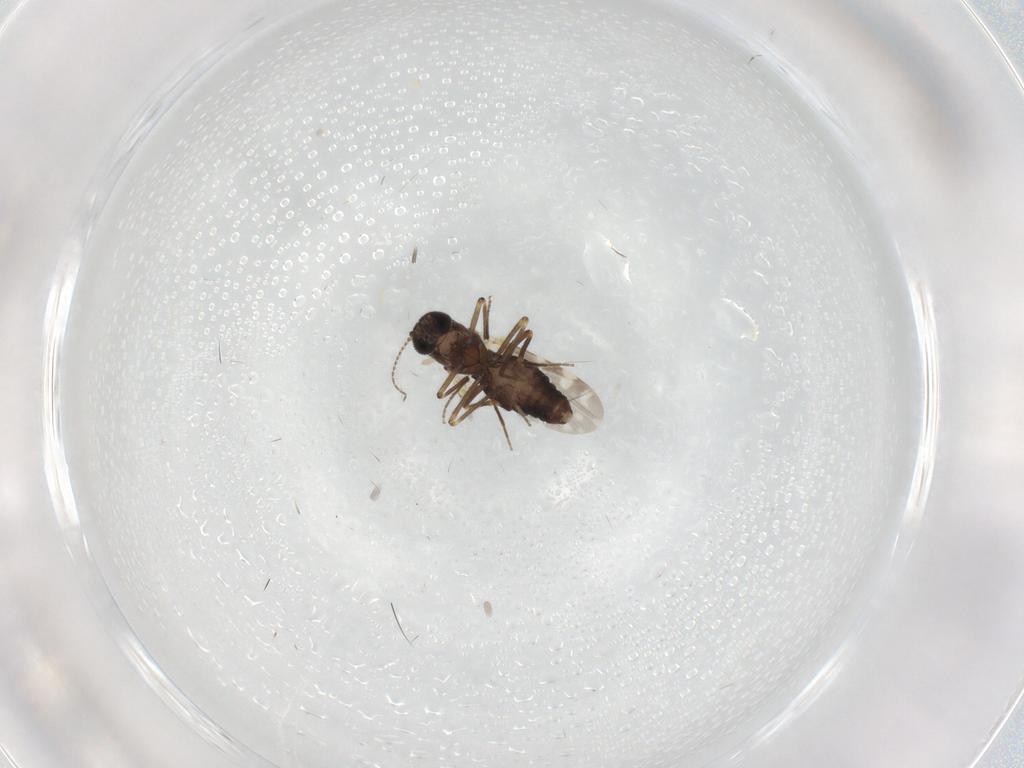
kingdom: Animalia
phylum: Arthropoda
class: Insecta
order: Diptera
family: Ceratopogonidae
